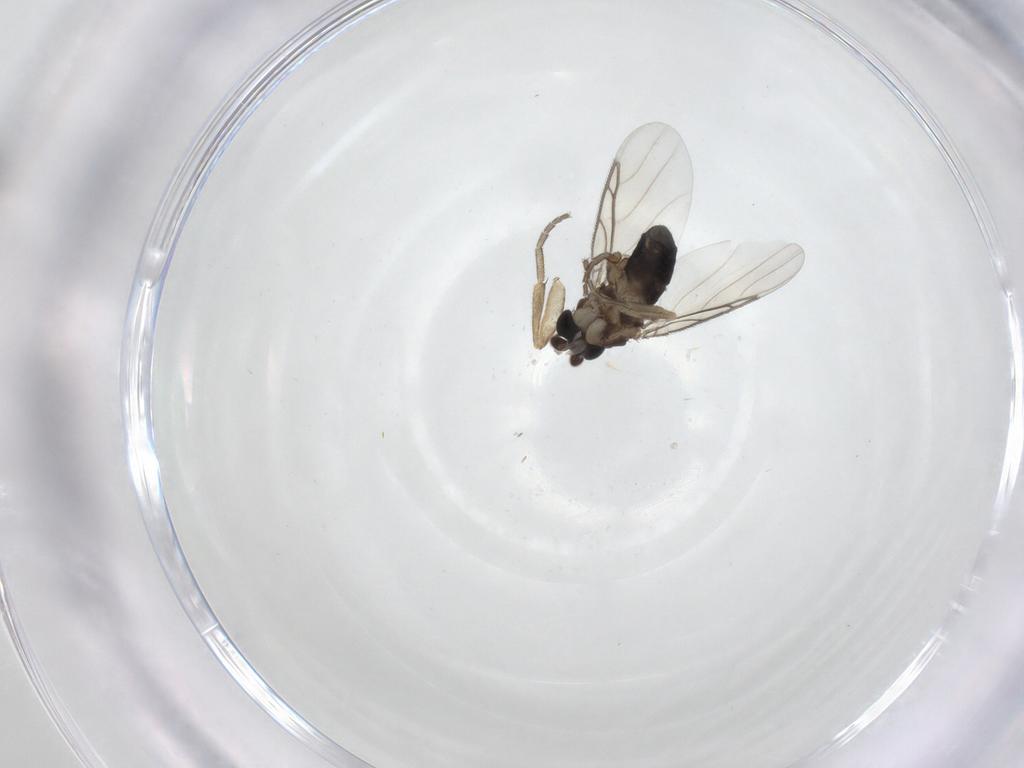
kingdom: Animalia
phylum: Arthropoda
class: Insecta
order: Diptera
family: Phoridae
